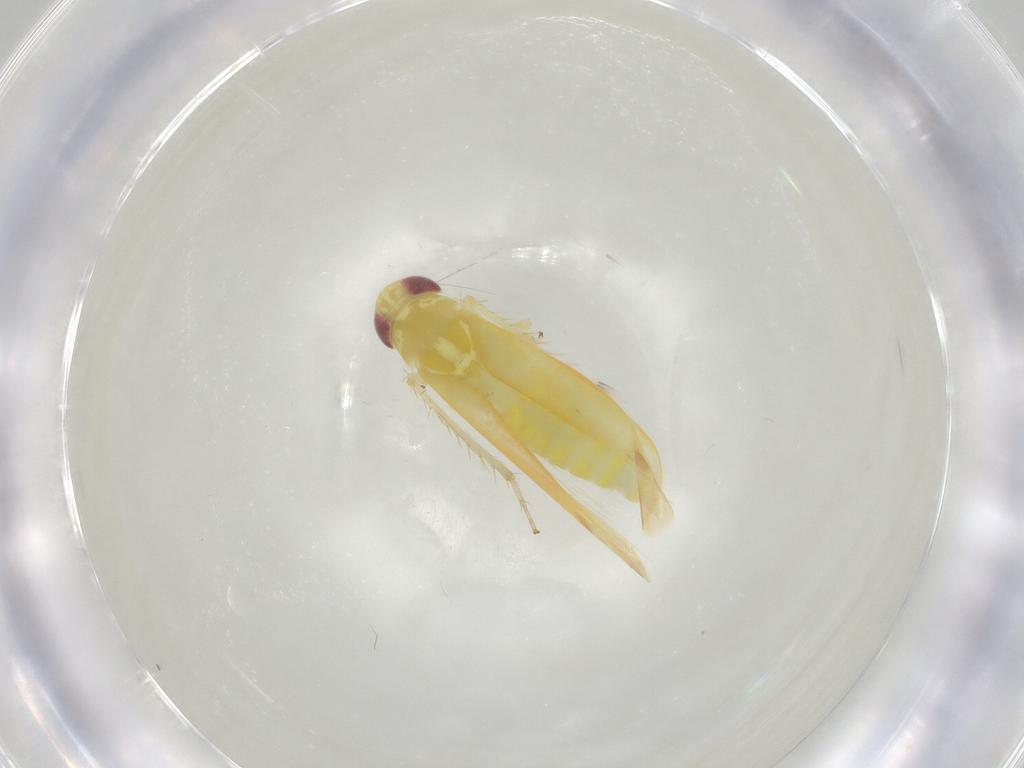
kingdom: Animalia
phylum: Arthropoda
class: Insecta
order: Hemiptera
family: Cicadellidae
